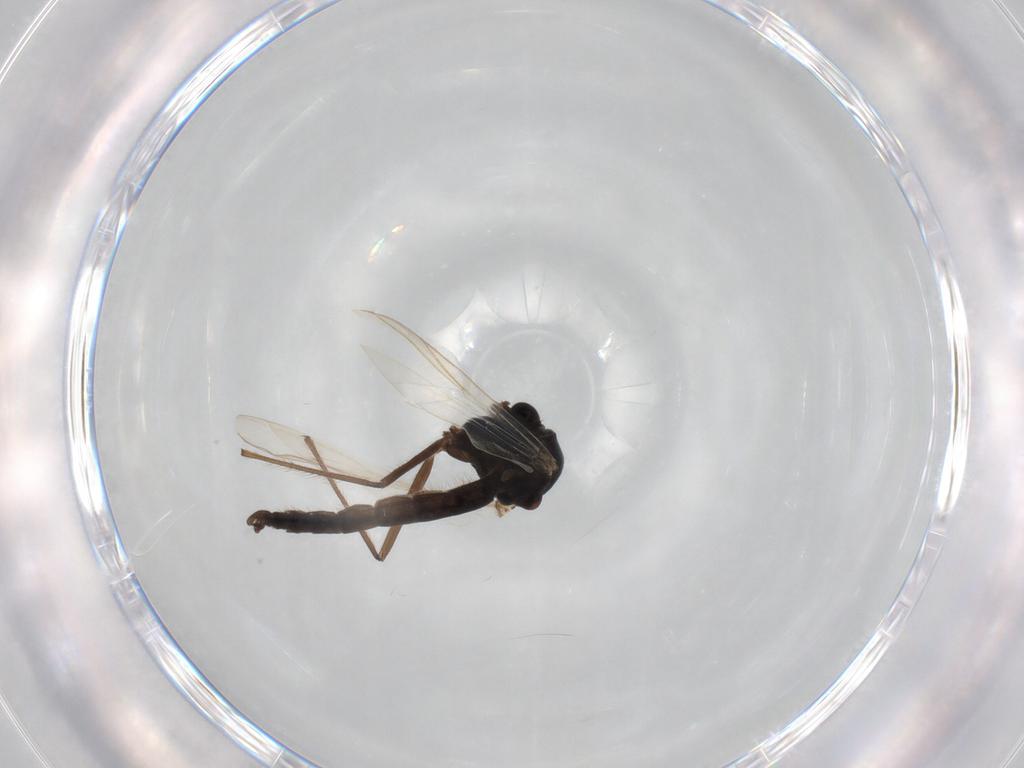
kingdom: Animalia
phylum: Arthropoda
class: Insecta
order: Diptera
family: Chironomidae
